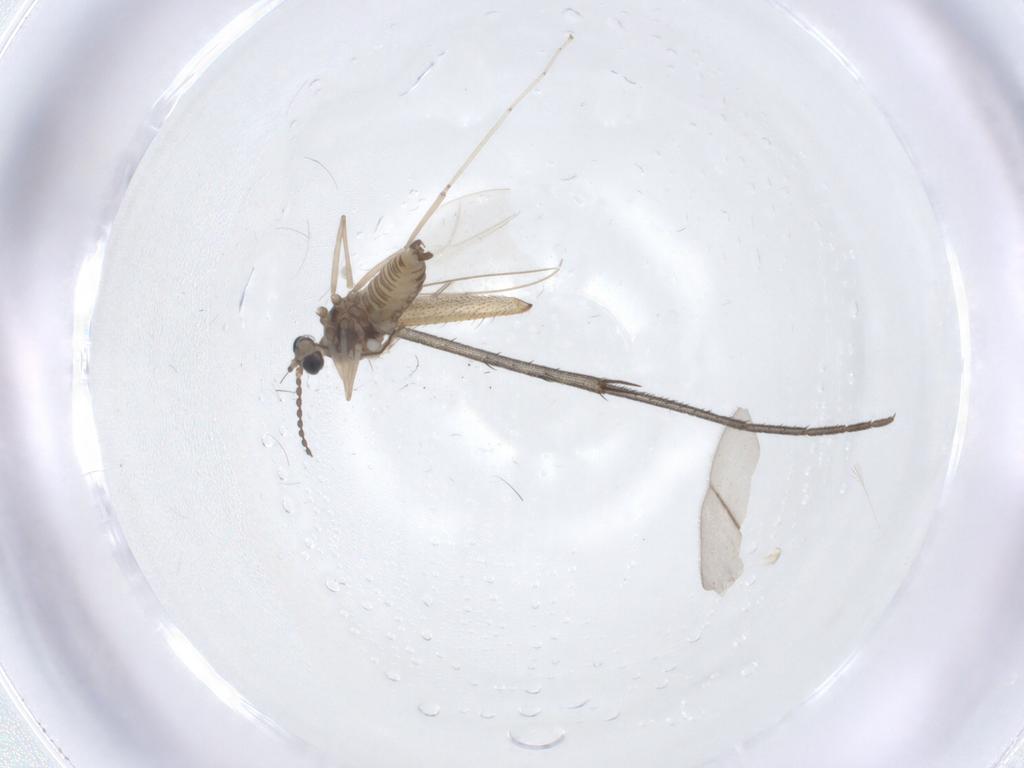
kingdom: Animalia
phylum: Arthropoda
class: Insecta
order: Diptera
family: Cecidomyiidae
